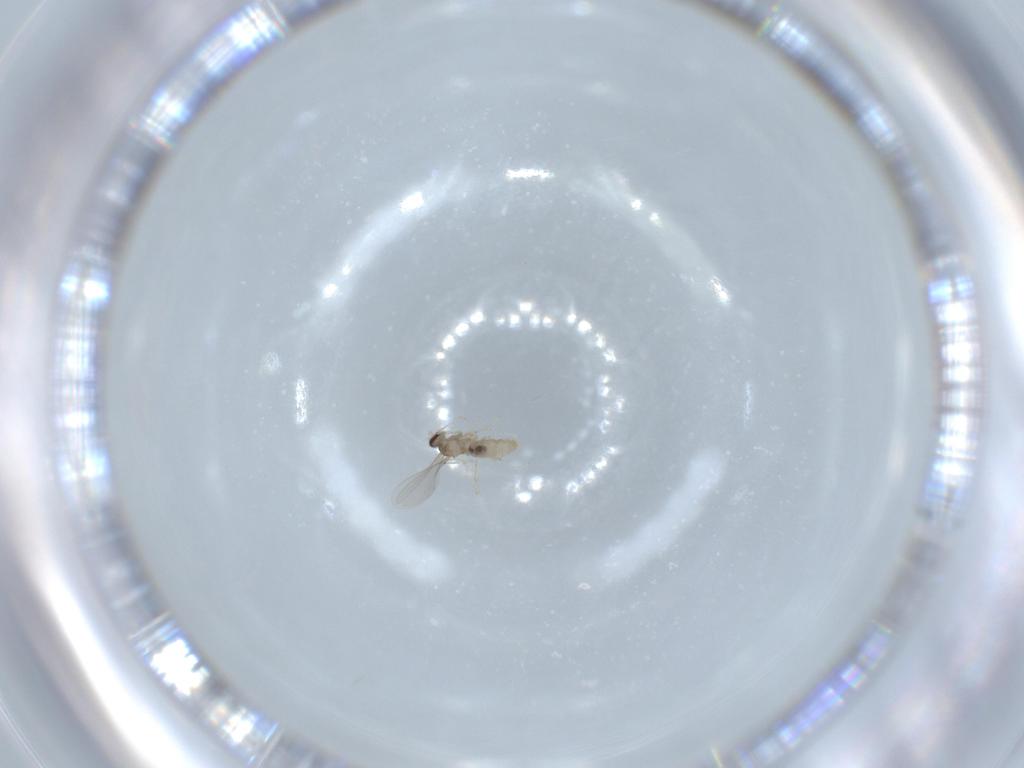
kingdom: Animalia
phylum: Arthropoda
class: Insecta
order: Diptera
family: Cecidomyiidae
